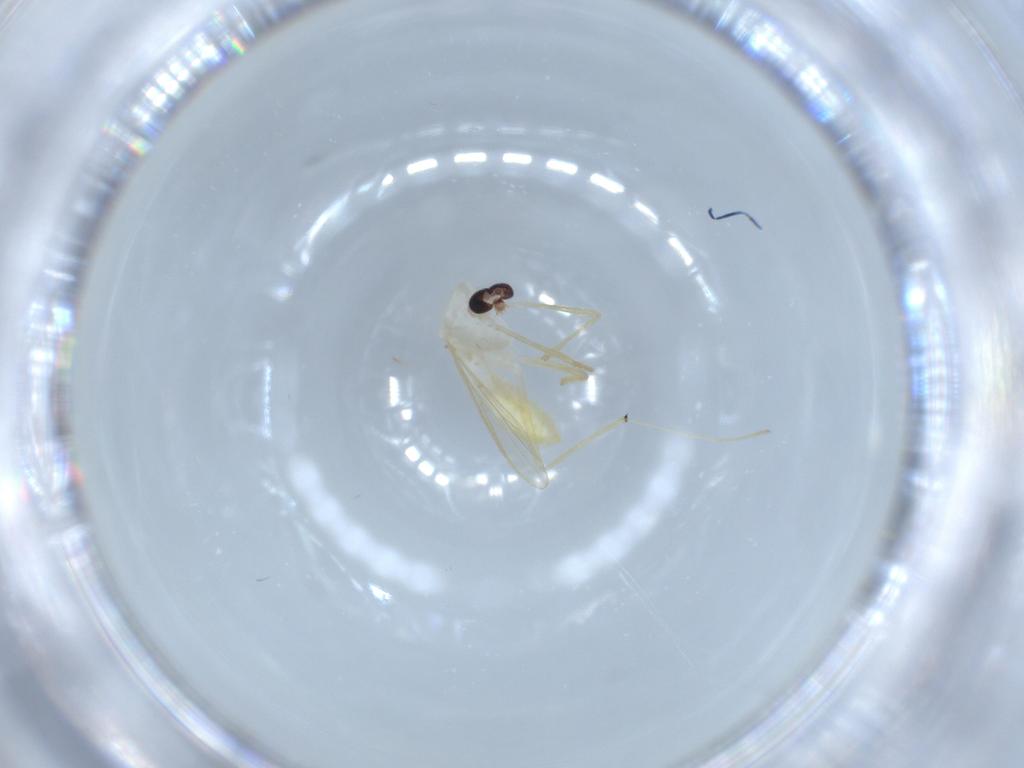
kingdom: Animalia
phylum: Arthropoda
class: Insecta
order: Diptera
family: Chironomidae
